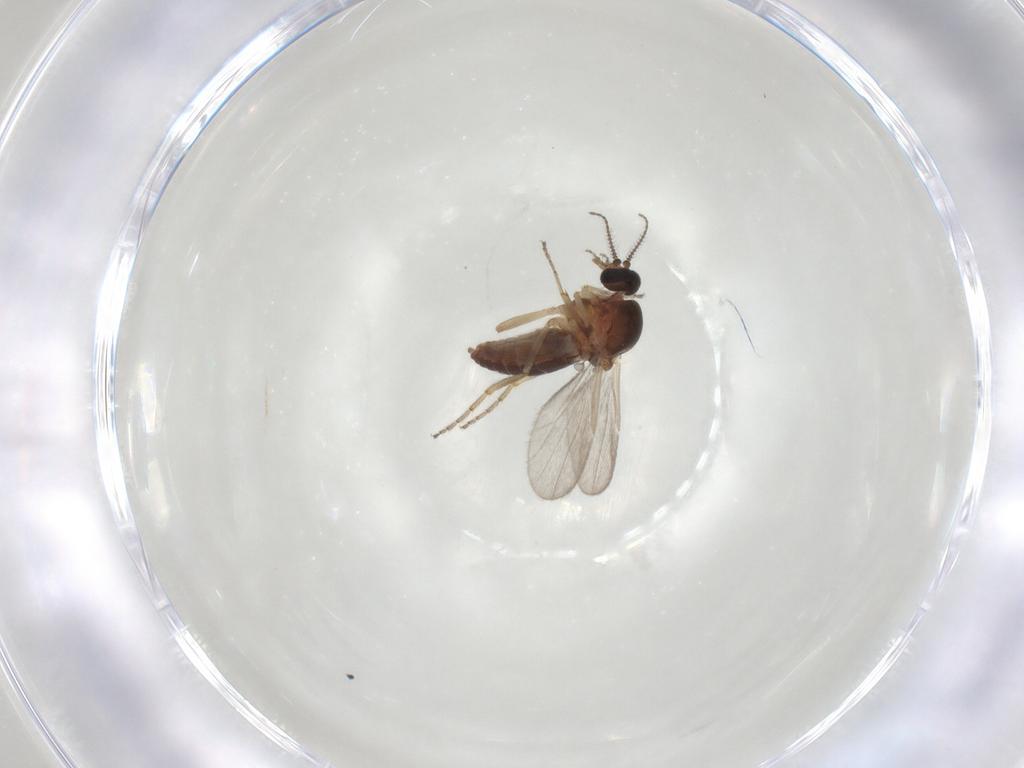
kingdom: Animalia
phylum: Arthropoda
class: Insecta
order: Diptera
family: Ceratopogonidae
